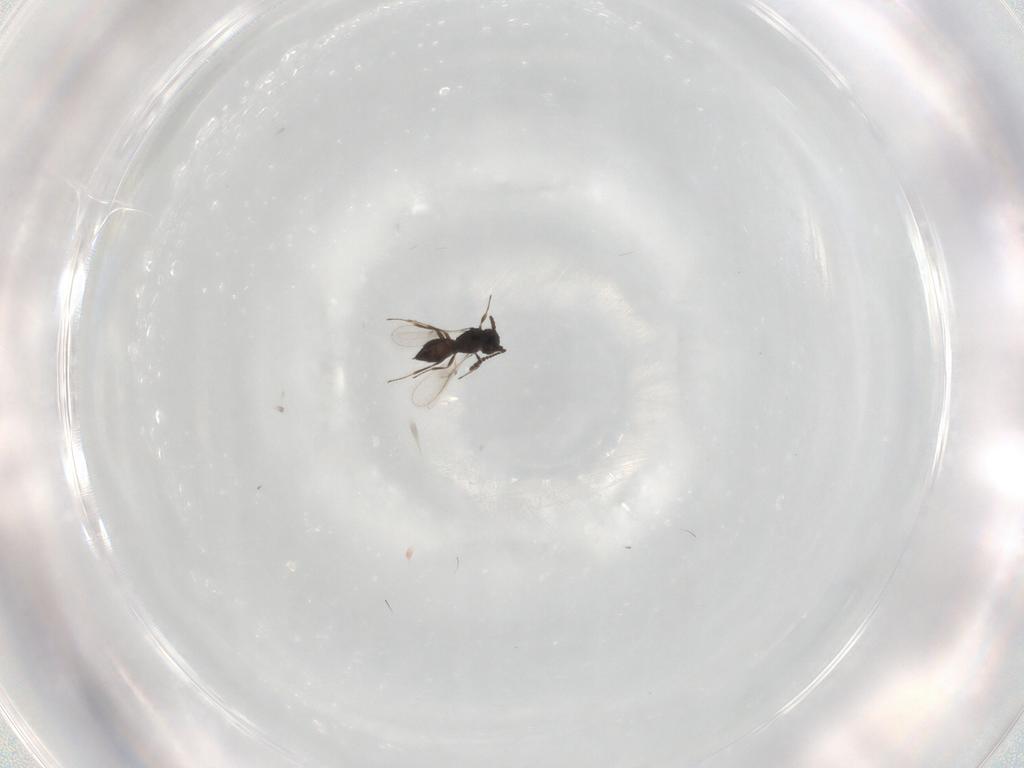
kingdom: Animalia
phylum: Arthropoda
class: Insecta
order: Hymenoptera
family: Scelionidae
